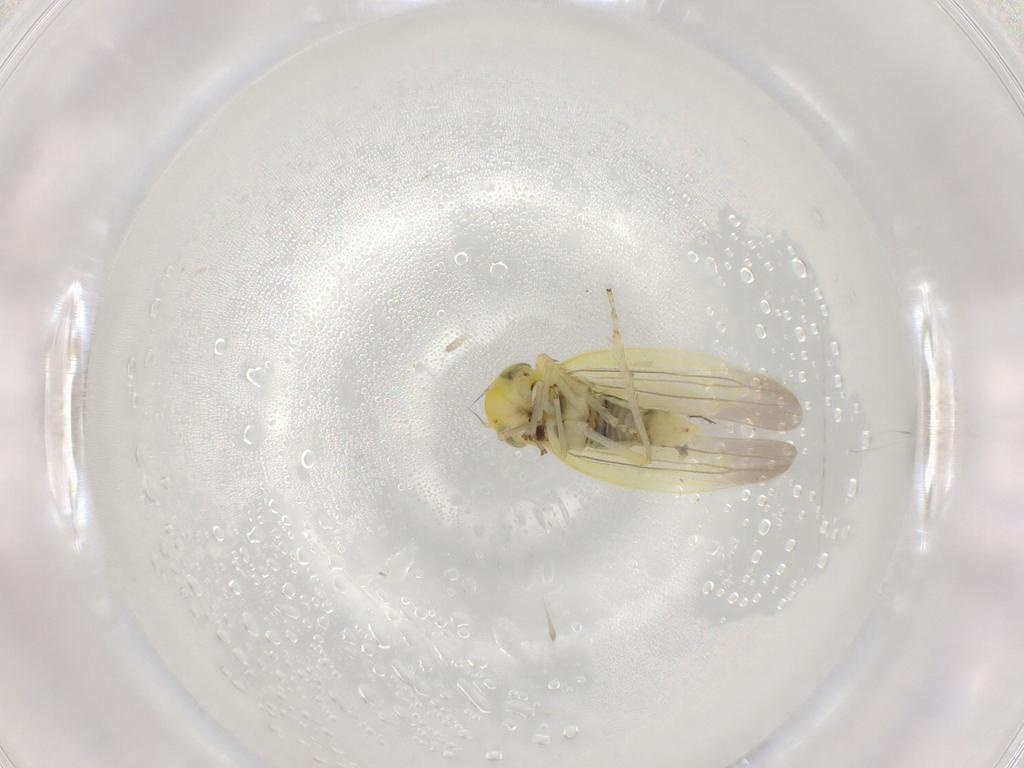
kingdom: Animalia
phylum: Arthropoda
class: Insecta
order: Hemiptera
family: Cicadellidae
